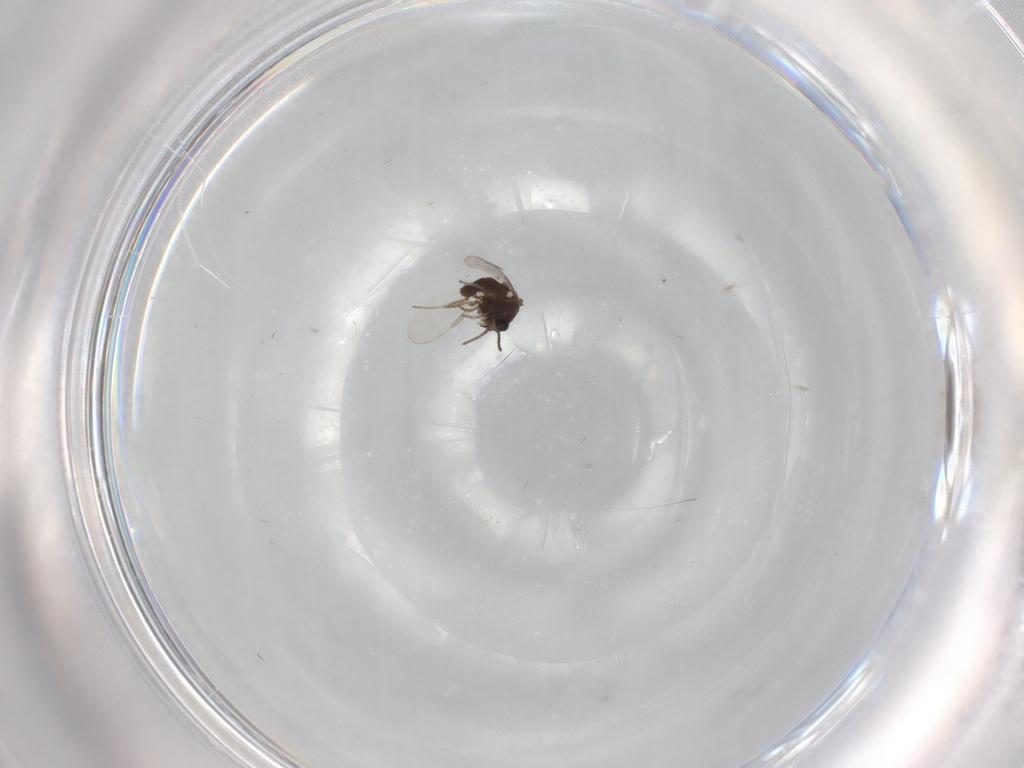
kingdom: Animalia
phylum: Arthropoda
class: Insecta
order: Diptera
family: Ceratopogonidae
